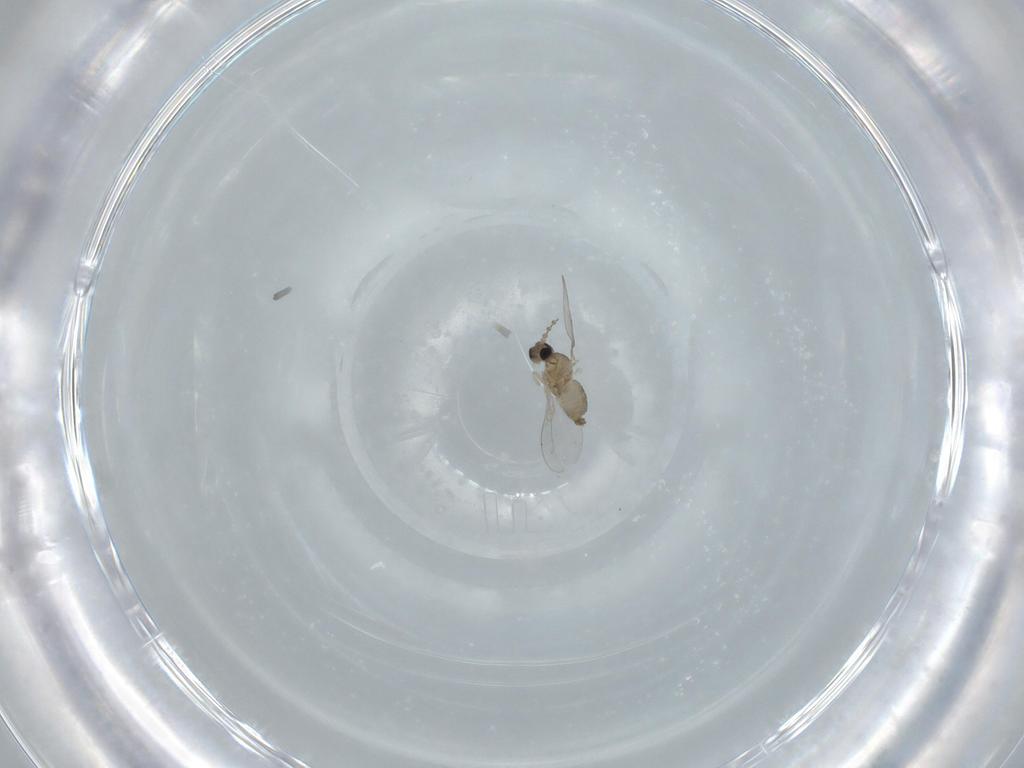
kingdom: Animalia
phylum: Arthropoda
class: Insecta
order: Diptera
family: Cecidomyiidae
